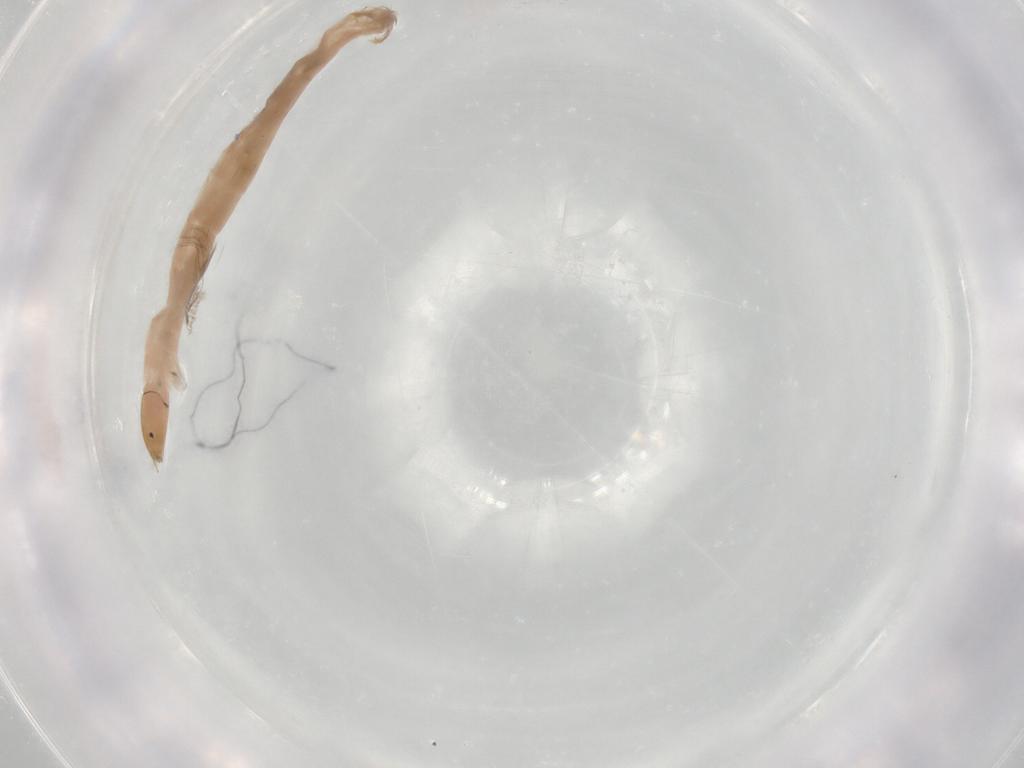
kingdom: Animalia
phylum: Arthropoda
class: Insecta
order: Diptera
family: Chironomidae
